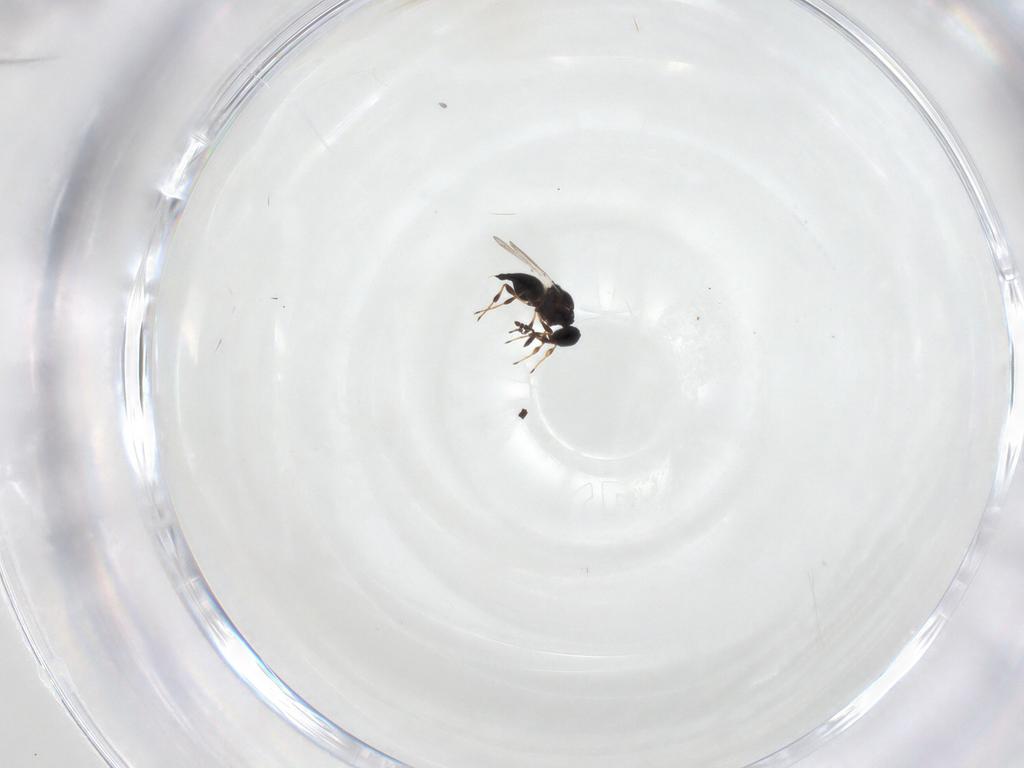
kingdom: Animalia
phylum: Arthropoda
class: Insecta
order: Hymenoptera
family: Platygastridae
